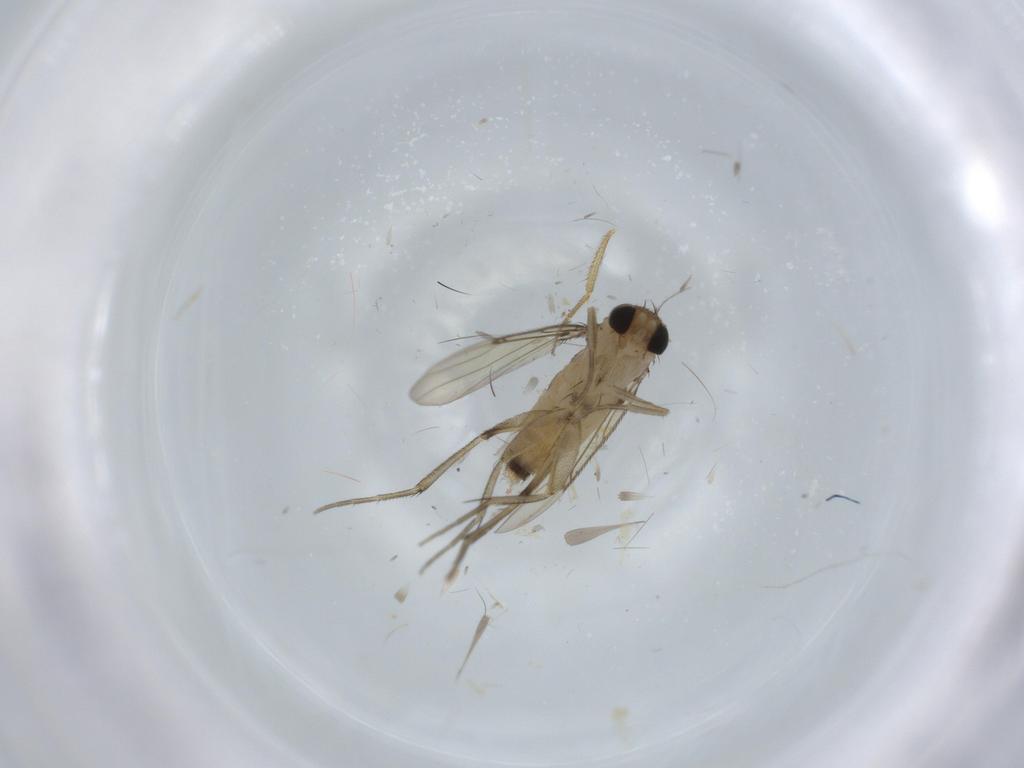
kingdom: Animalia
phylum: Arthropoda
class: Insecta
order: Diptera
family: Phoridae
